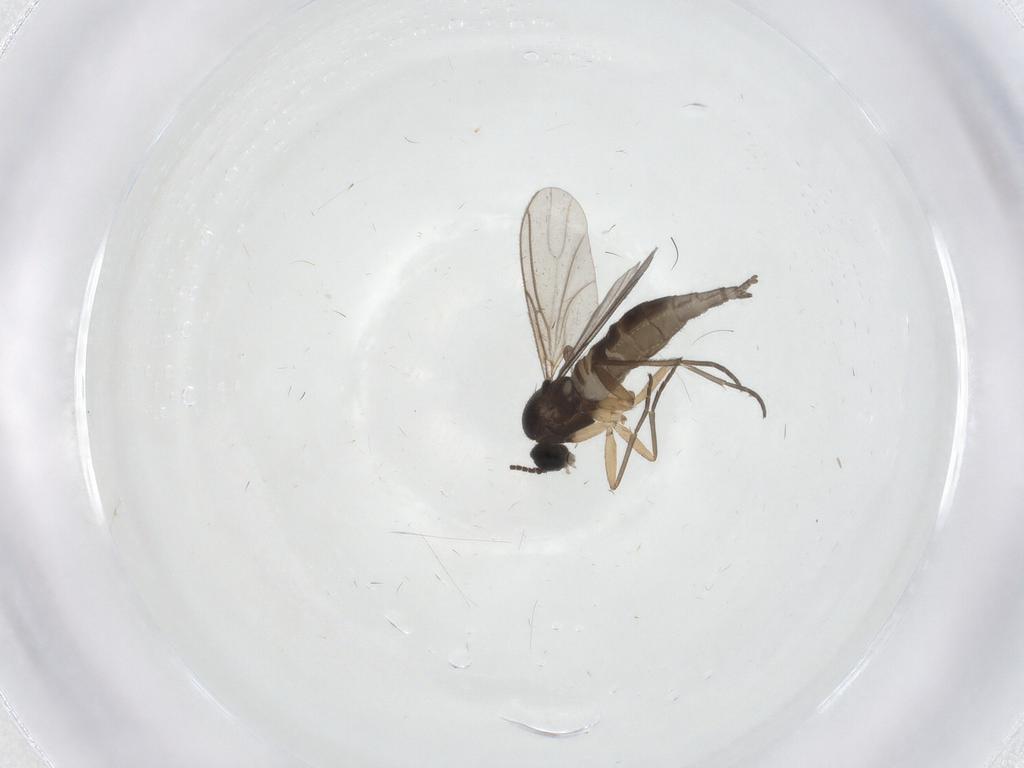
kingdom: Animalia
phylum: Arthropoda
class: Insecta
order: Diptera
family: Sciaridae
